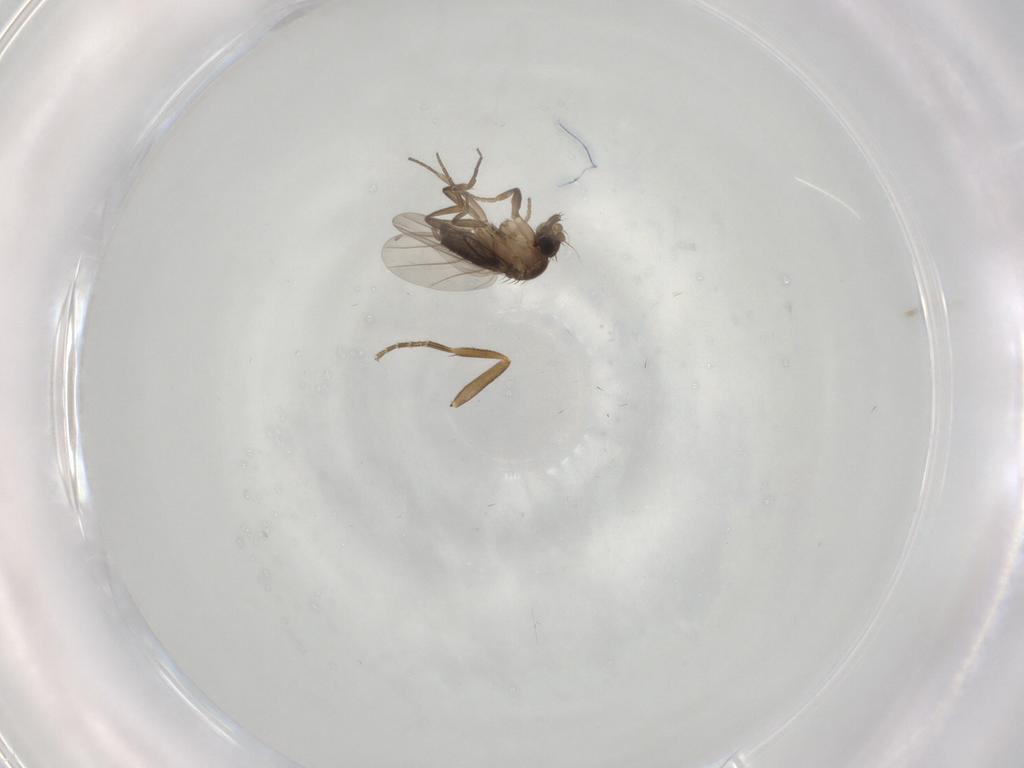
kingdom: Animalia
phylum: Arthropoda
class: Insecta
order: Diptera
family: Phoridae
